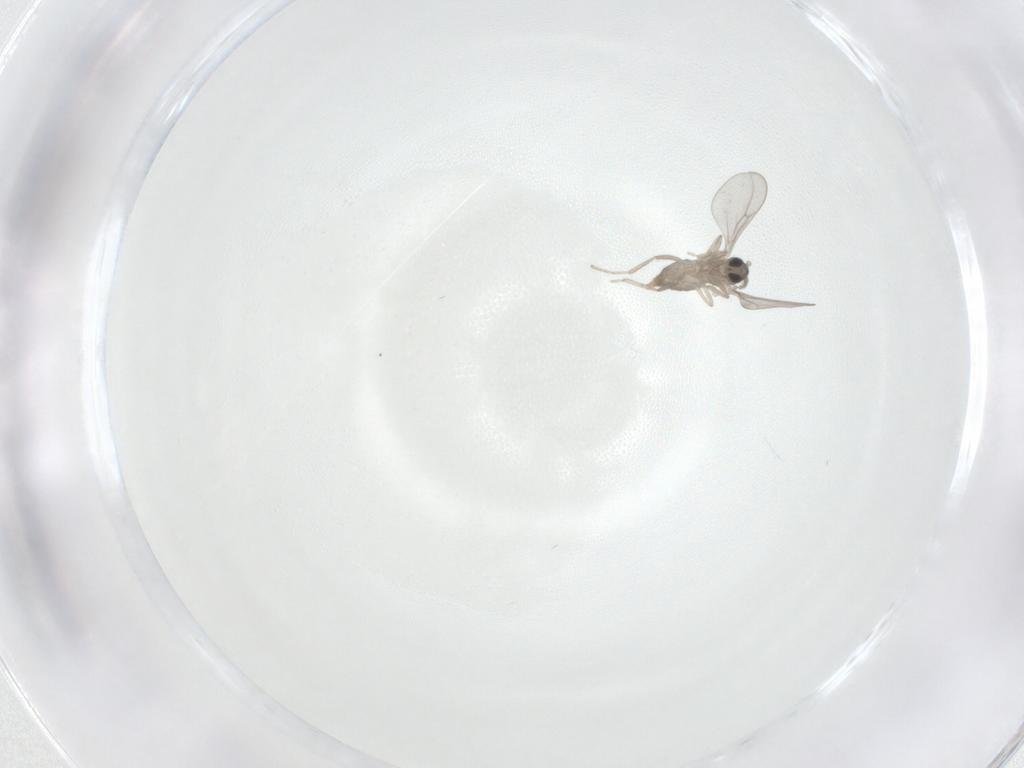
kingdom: Animalia
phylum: Arthropoda
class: Insecta
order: Diptera
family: Cecidomyiidae
